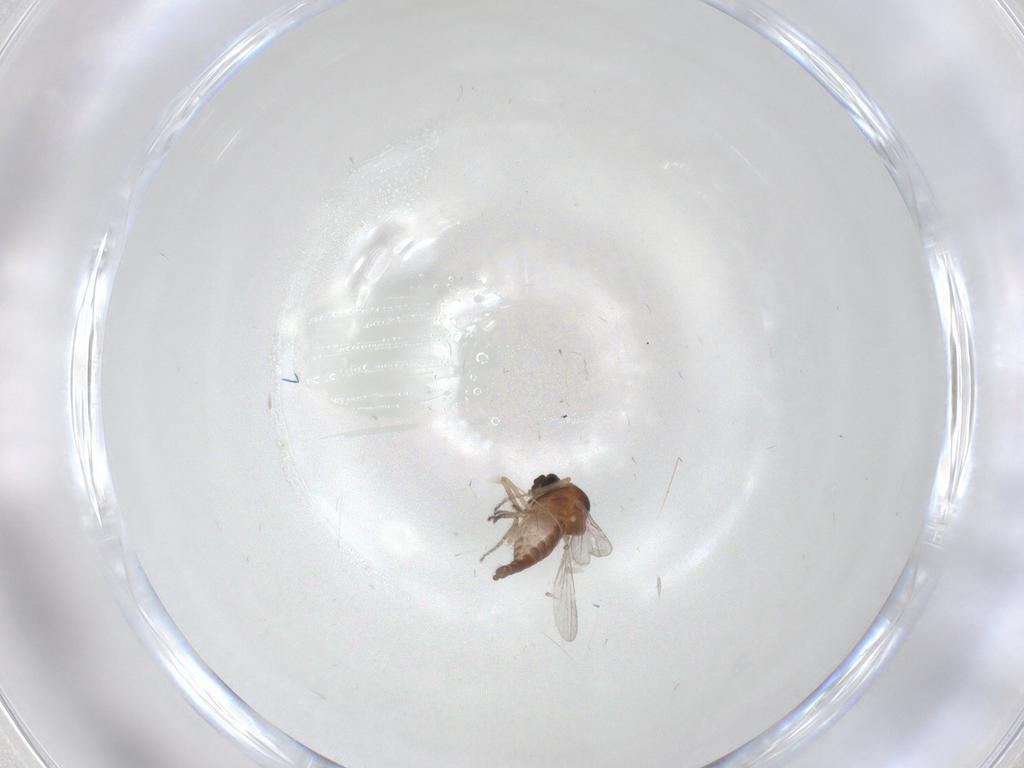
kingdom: Animalia
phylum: Arthropoda
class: Insecta
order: Diptera
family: Ceratopogonidae
